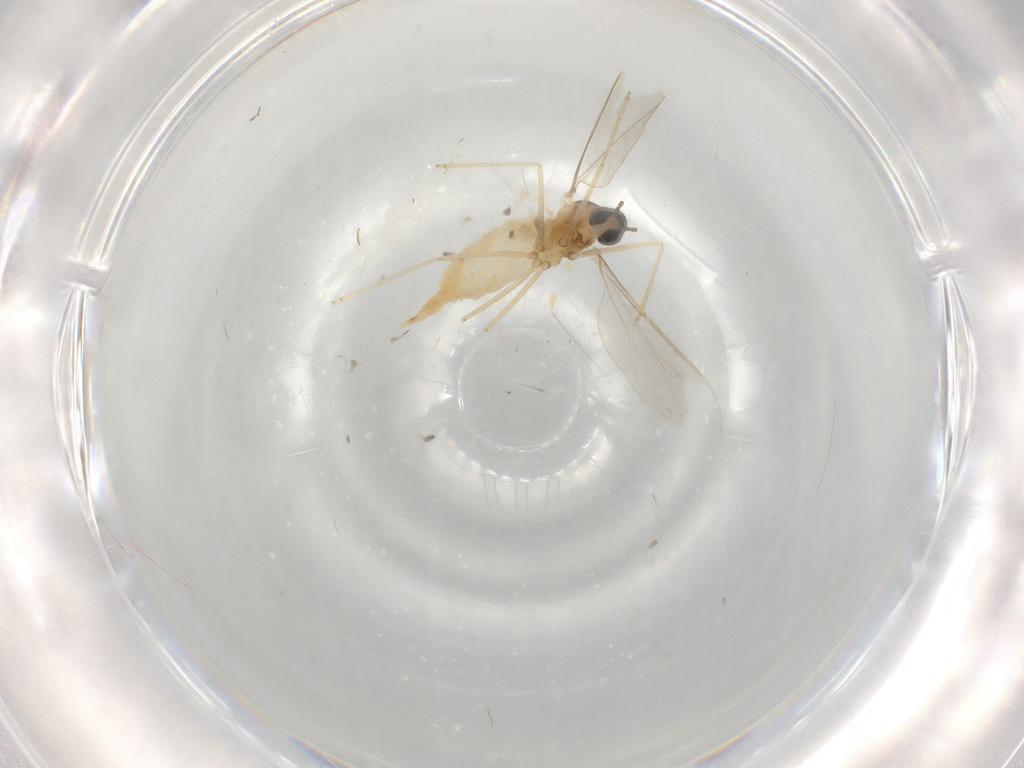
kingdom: Animalia
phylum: Arthropoda
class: Insecta
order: Diptera
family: Cecidomyiidae
